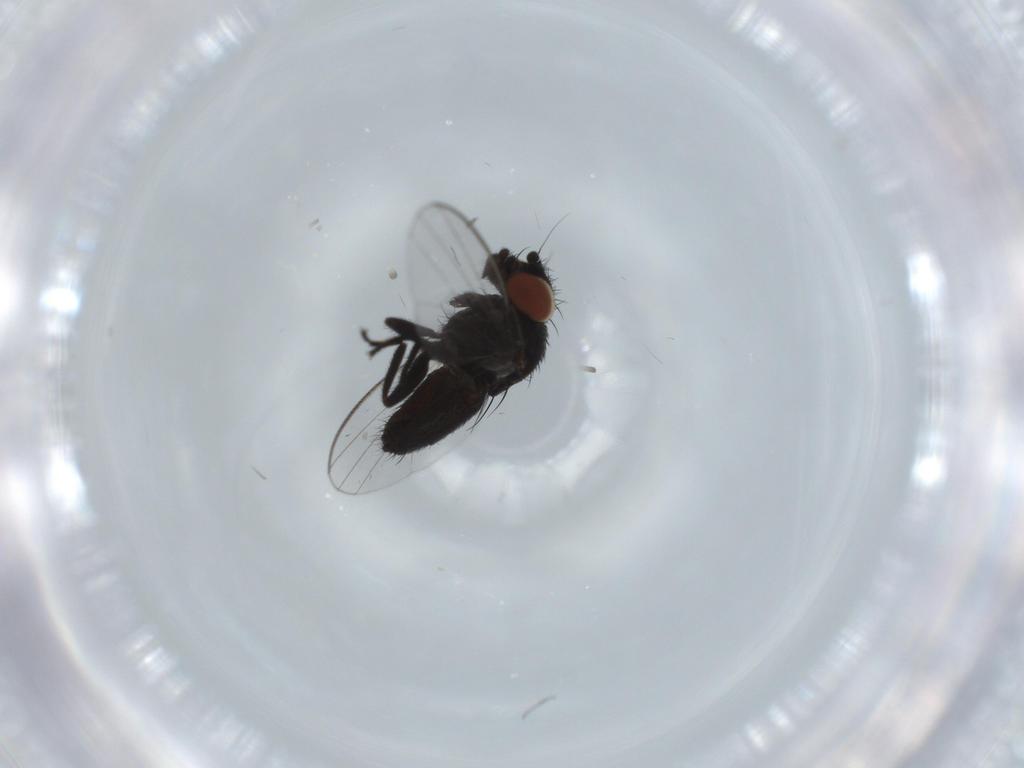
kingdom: Animalia
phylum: Arthropoda
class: Insecta
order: Diptera
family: Milichiidae
